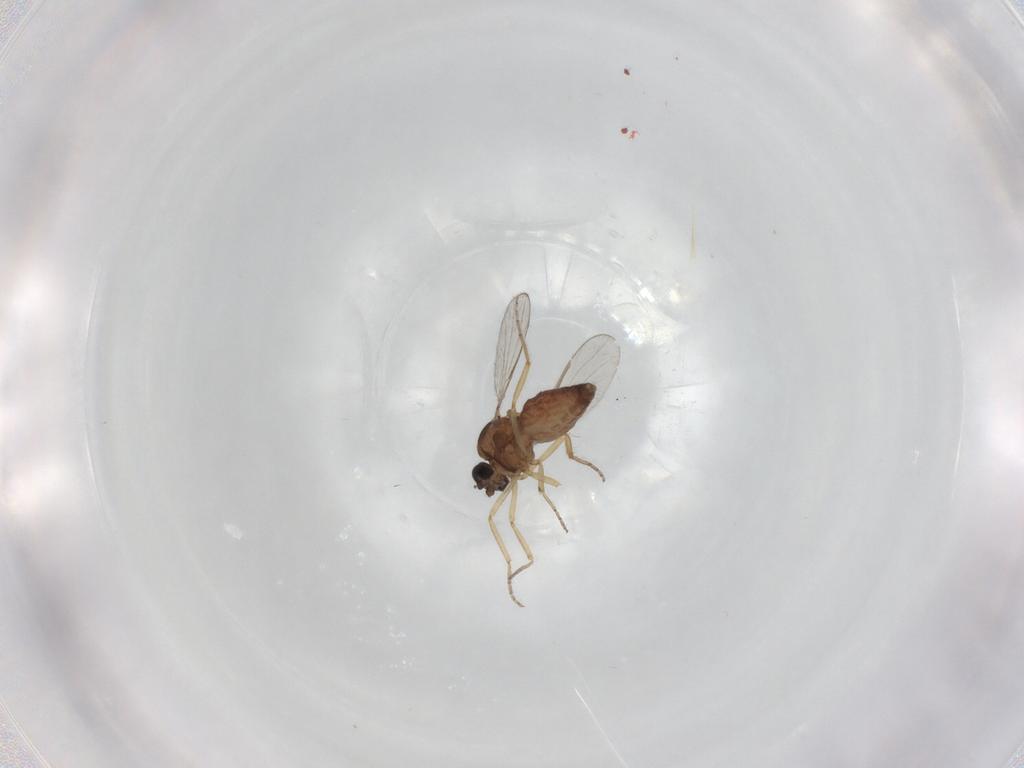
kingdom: Animalia
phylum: Arthropoda
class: Insecta
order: Diptera
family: Ceratopogonidae
